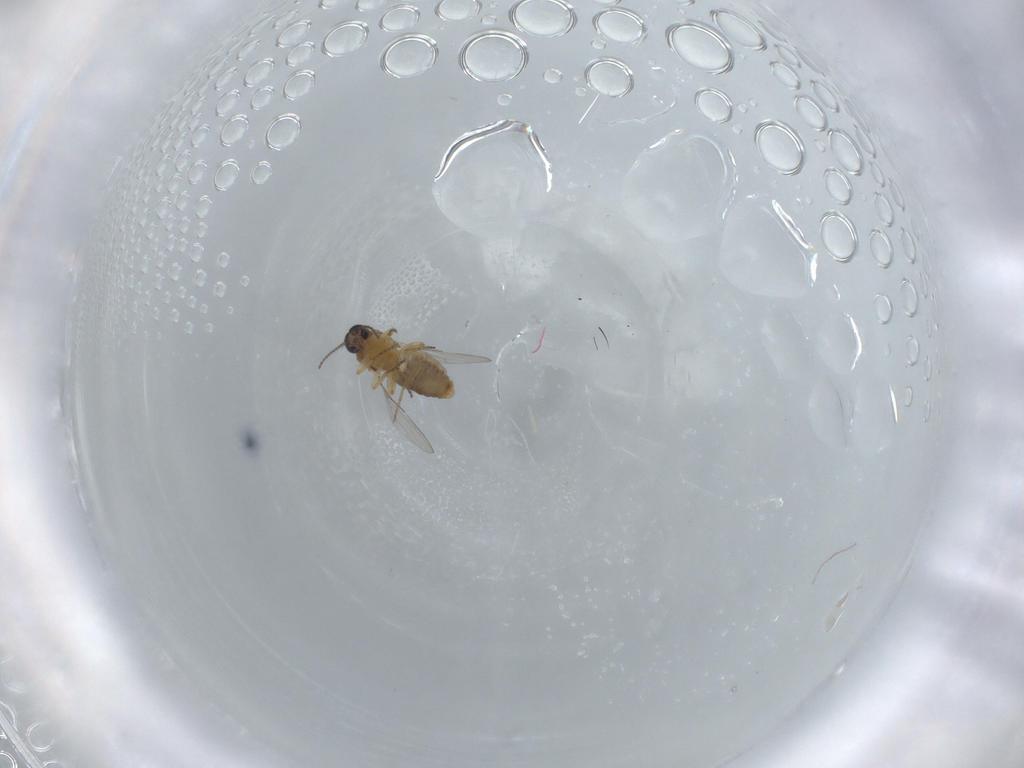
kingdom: Animalia
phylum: Arthropoda
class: Insecta
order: Diptera
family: Ceratopogonidae
